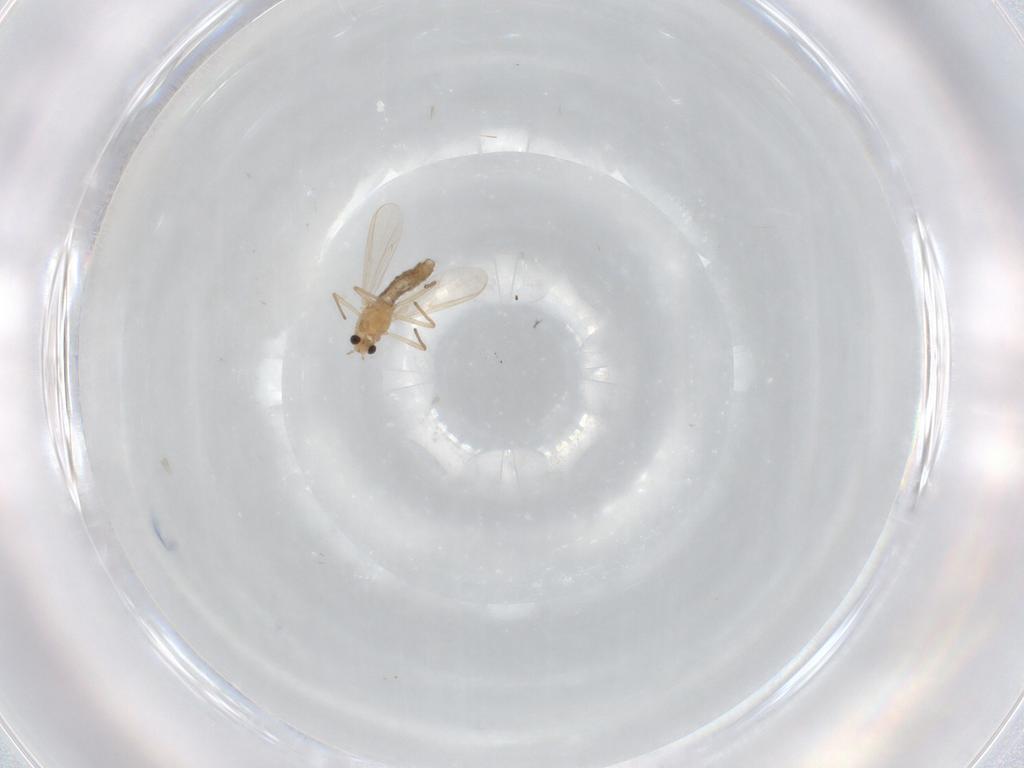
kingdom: Animalia
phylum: Arthropoda
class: Insecta
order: Diptera
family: Chironomidae
